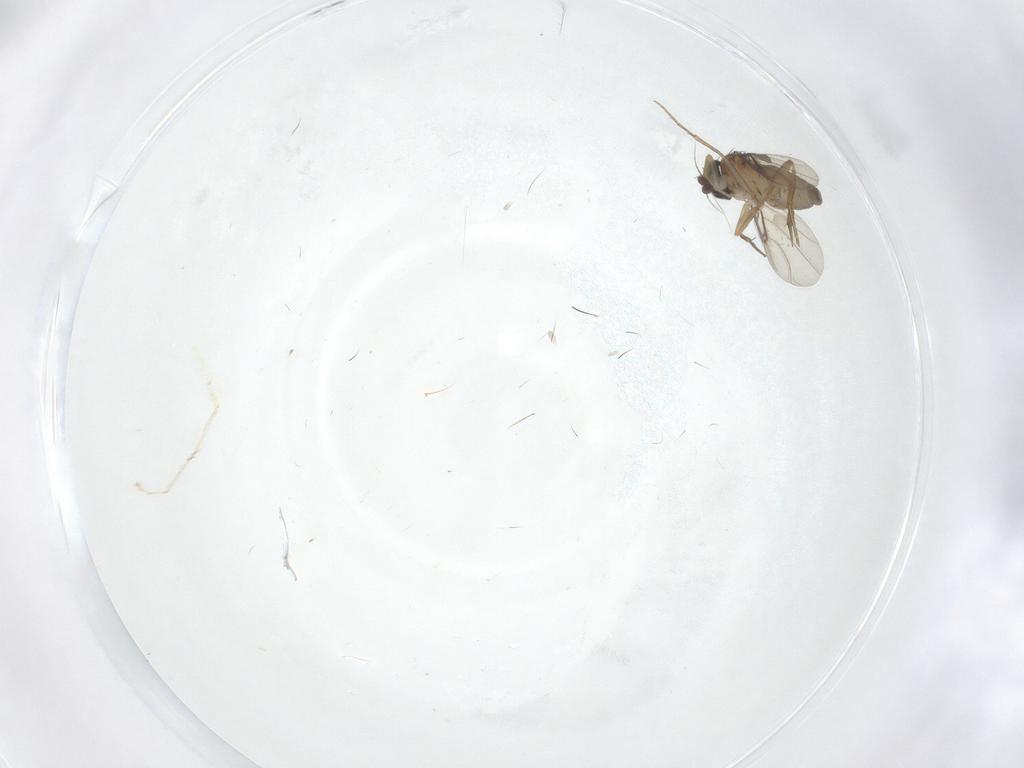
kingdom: Animalia
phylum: Arthropoda
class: Insecta
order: Diptera
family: Phoridae
